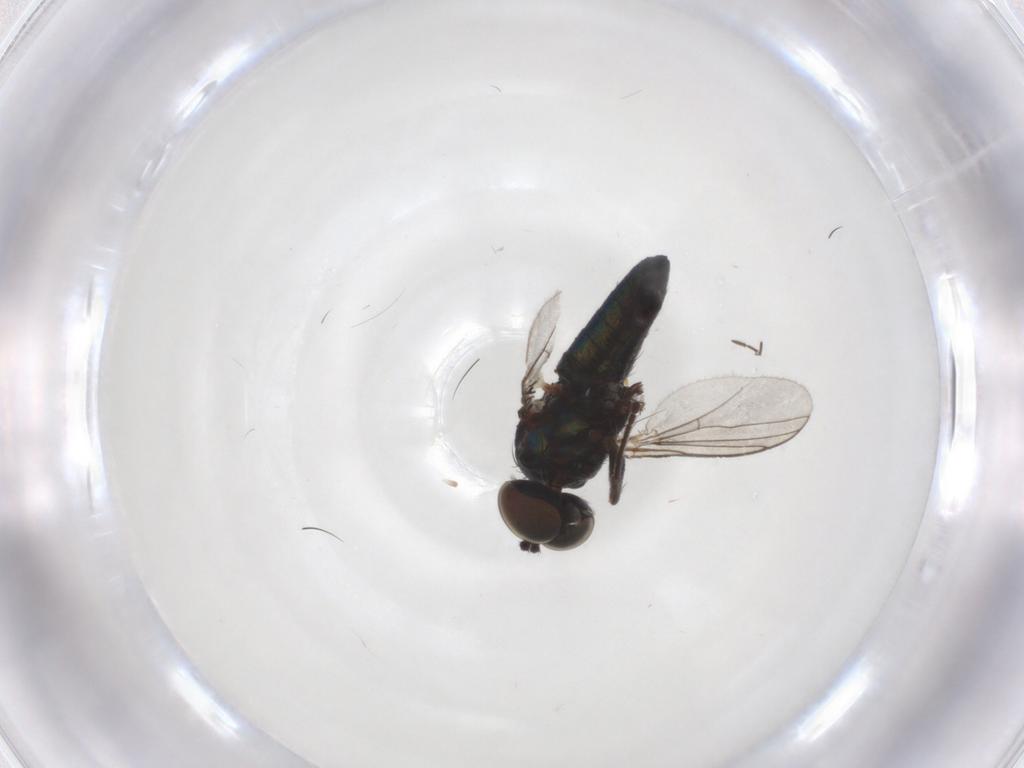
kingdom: Animalia
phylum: Arthropoda
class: Insecta
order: Diptera
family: Dolichopodidae
